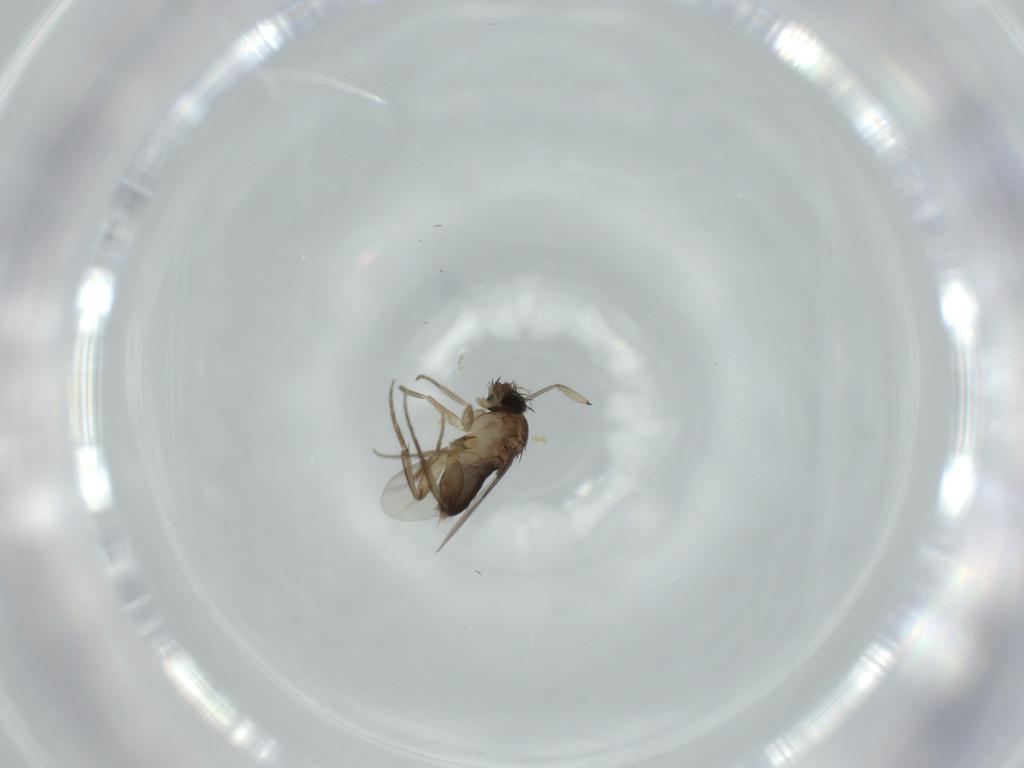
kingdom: Animalia
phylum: Arthropoda
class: Insecta
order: Diptera
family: Phoridae
